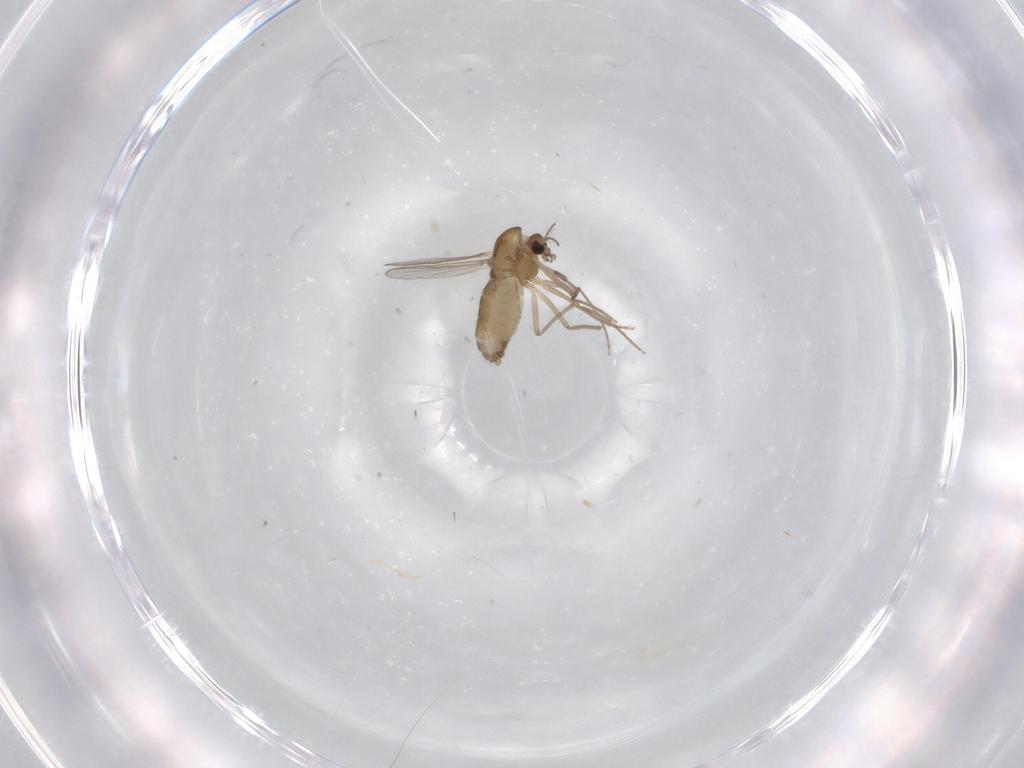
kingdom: Animalia
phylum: Arthropoda
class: Insecta
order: Diptera
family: Chironomidae
